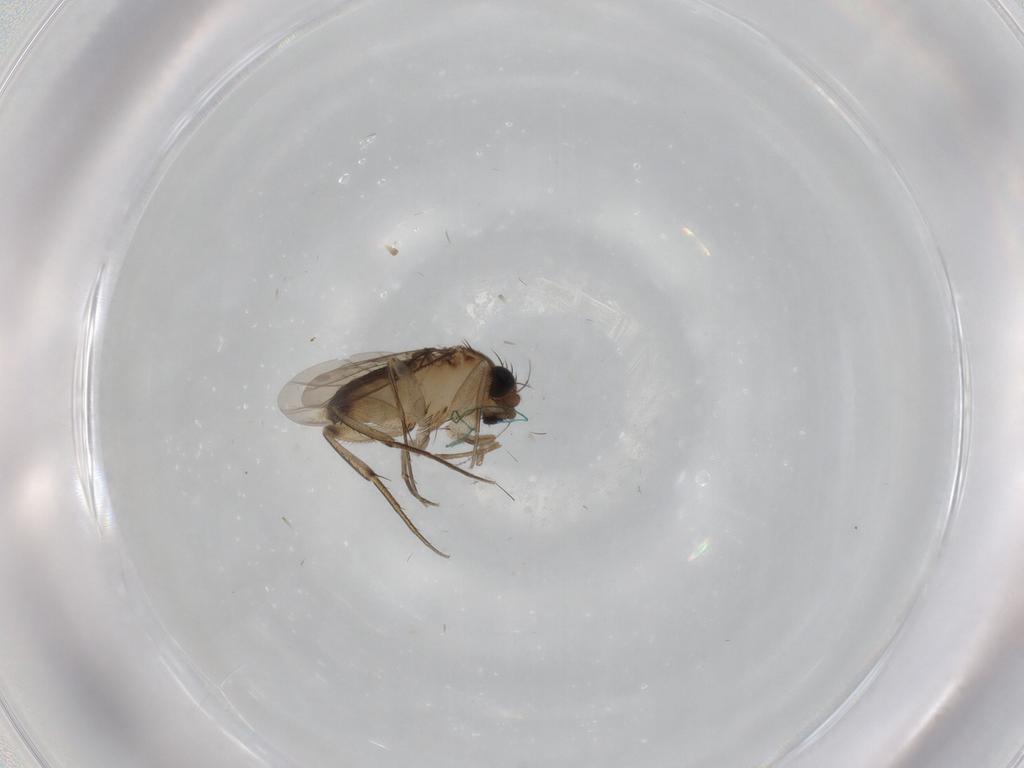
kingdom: Animalia
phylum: Arthropoda
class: Insecta
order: Diptera
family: Phoridae
